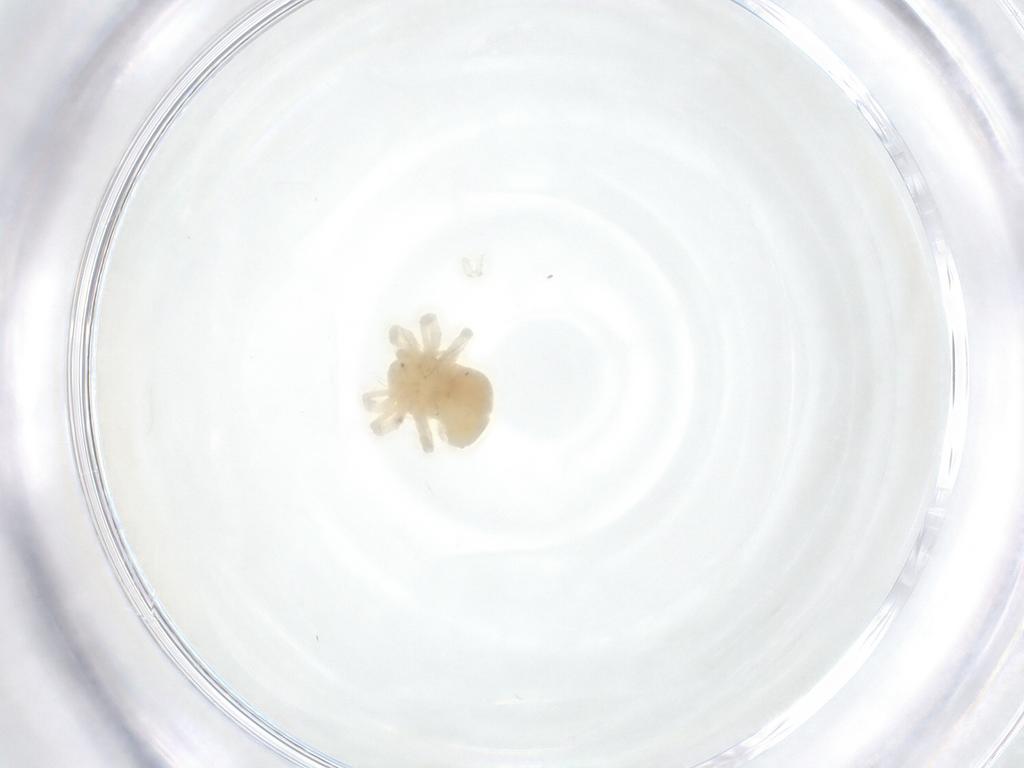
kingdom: Animalia
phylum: Arthropoda
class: Arachnida
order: Trombidiformes
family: Anystidae
